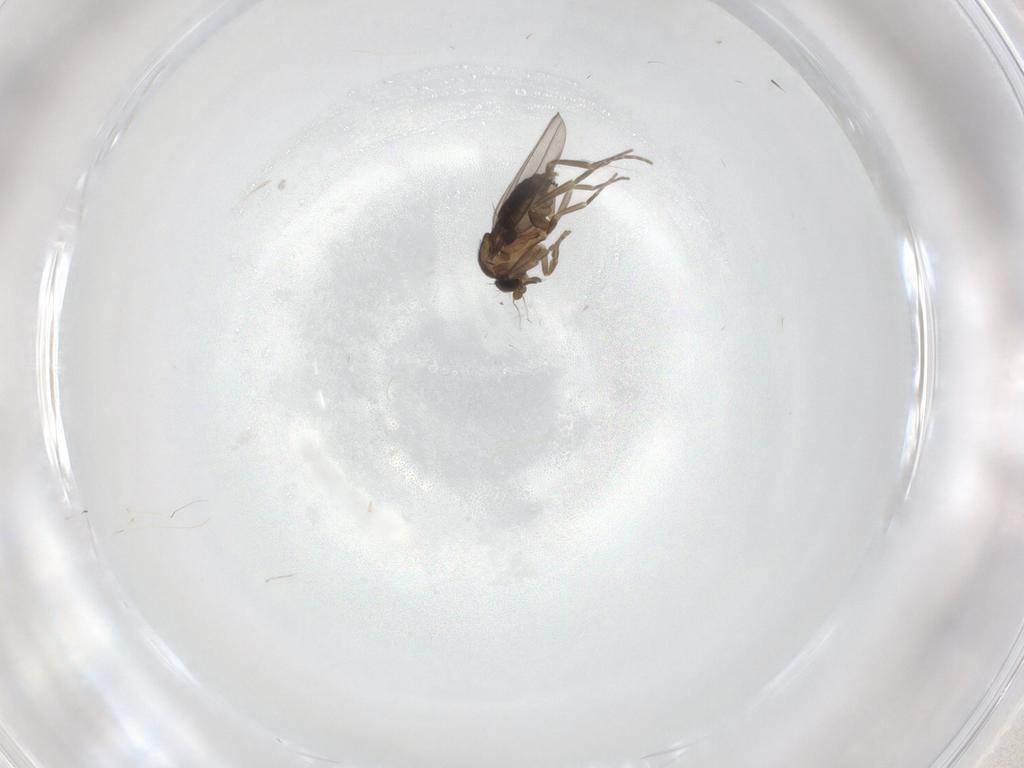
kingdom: Animalia
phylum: Arthropoda
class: Insecta
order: Diptera
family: Phoridae
